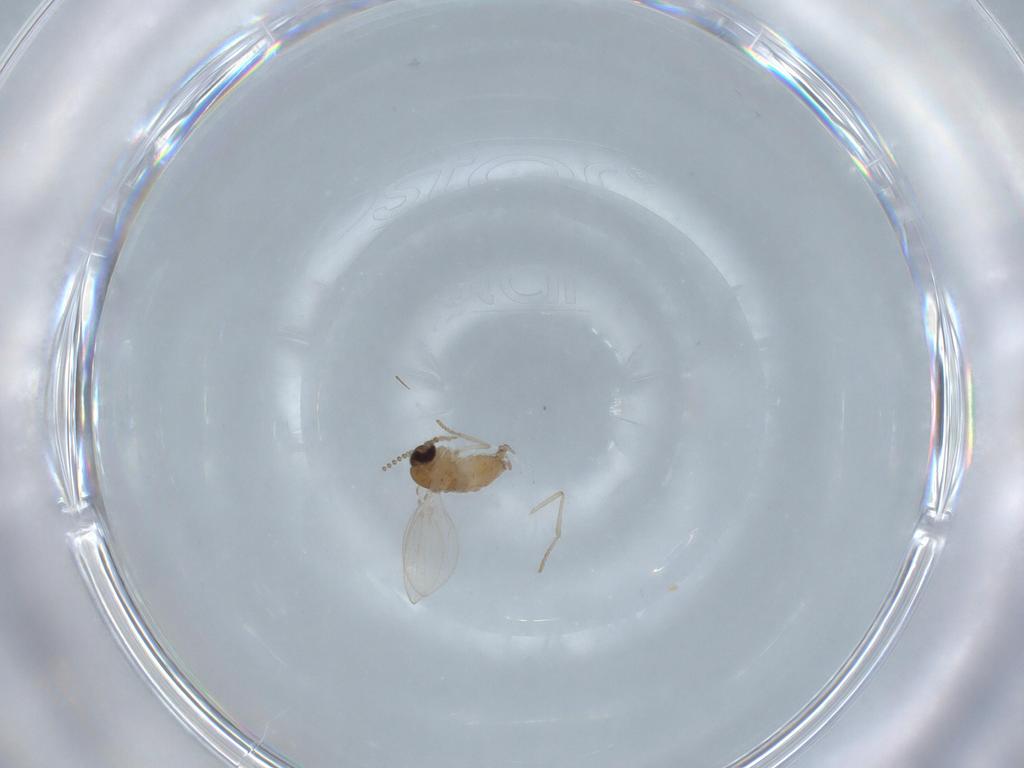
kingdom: Animalia
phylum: Arthropoda
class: Insecta
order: Diptera
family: Psychodidae
